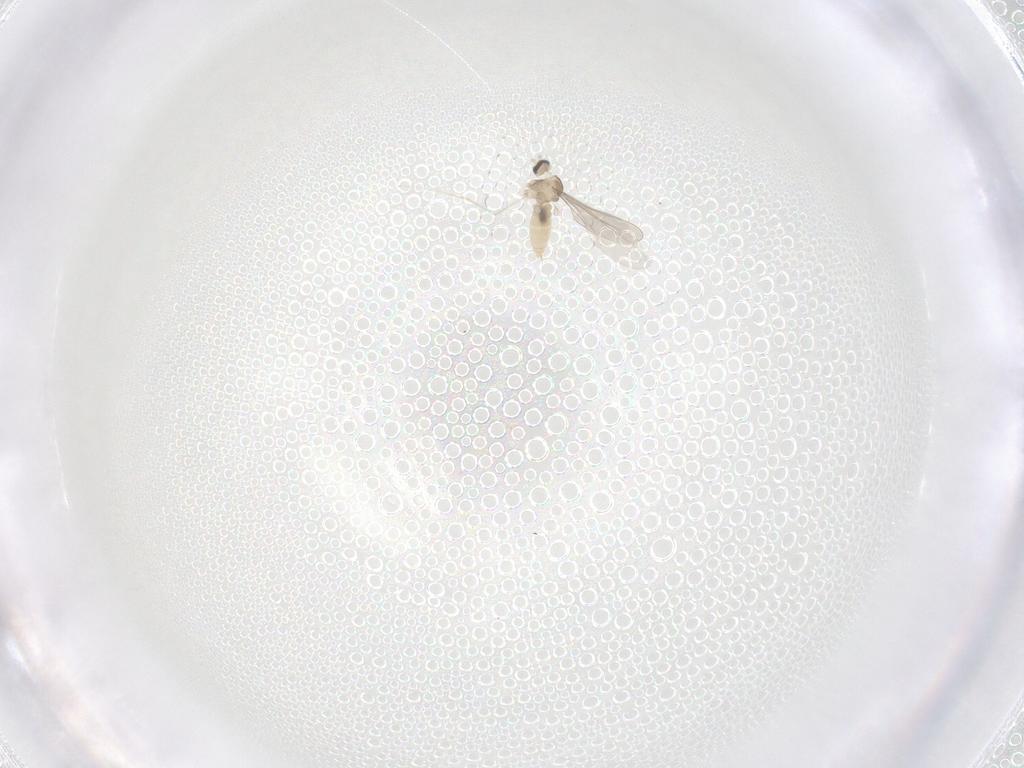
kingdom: Animalia
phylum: Arthropoda
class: Insecta
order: Diptera
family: Cecidomyiidae
